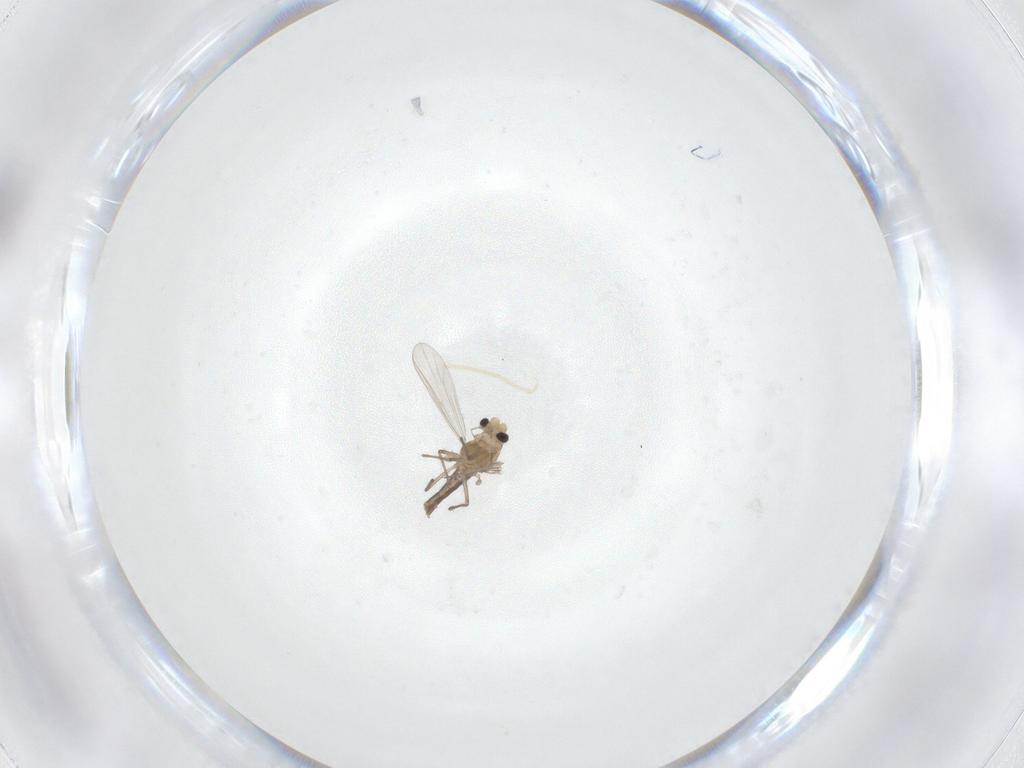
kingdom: Animalia
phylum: Arthropoda
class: Insecta
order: Diptera
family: Chironomidae
